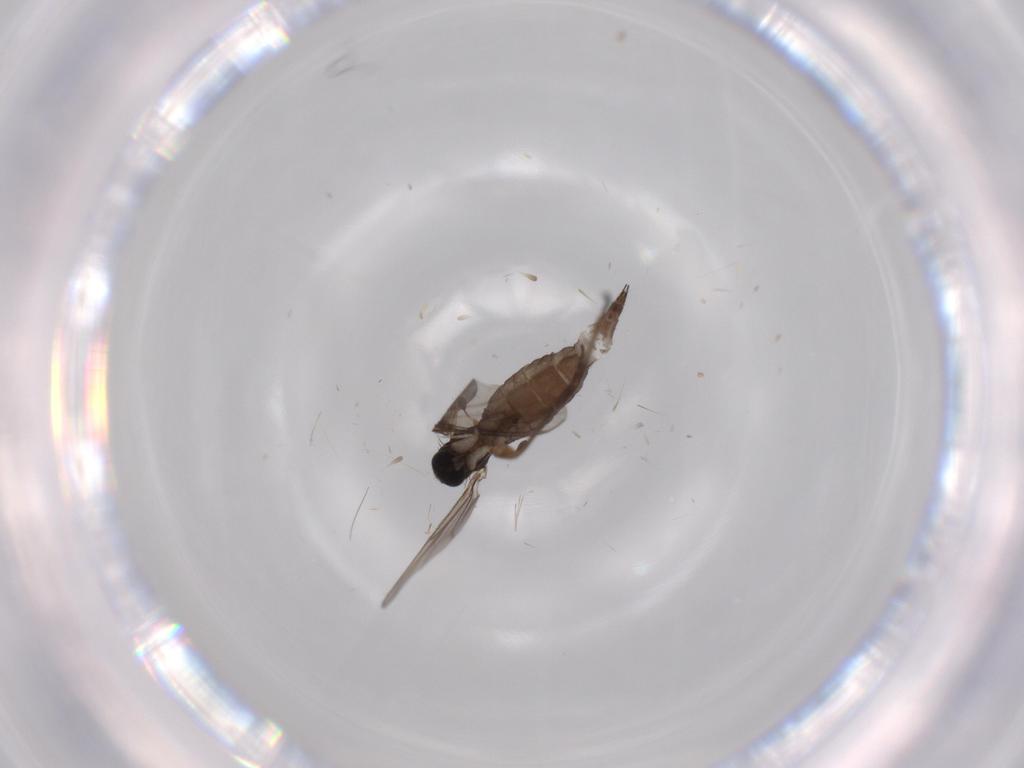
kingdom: Animalia
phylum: Arthropoda
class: Insecta
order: Diptera
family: Sciaridae
